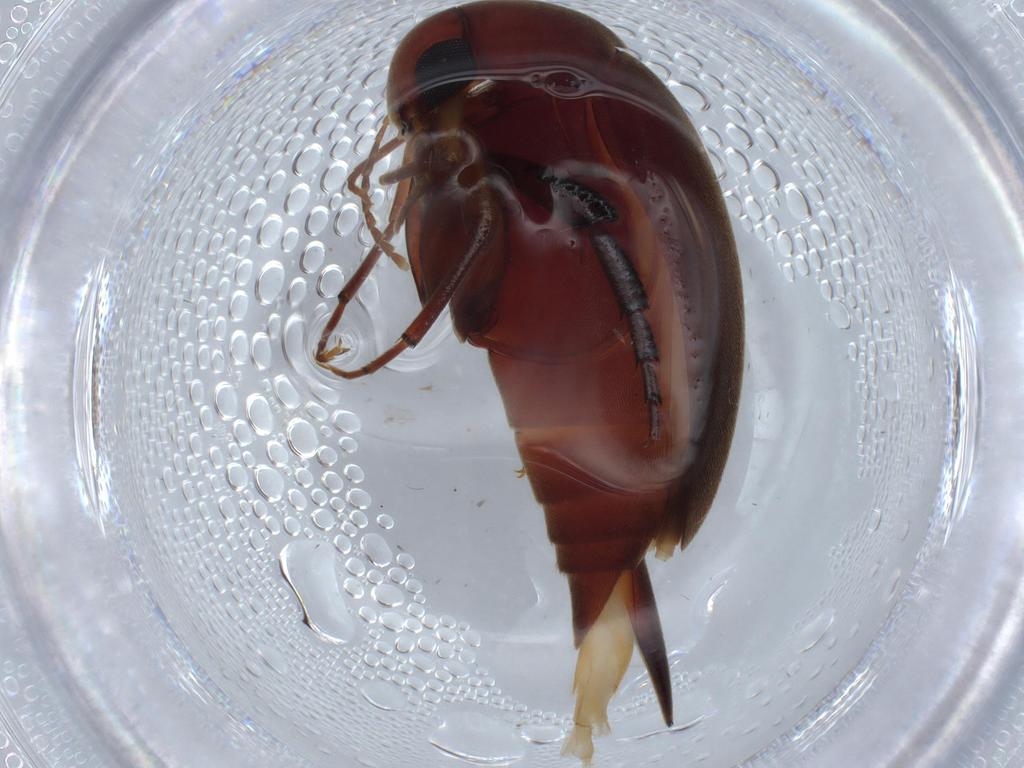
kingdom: Animalia
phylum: Arthropoda
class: Insecta
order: Coleoptera
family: Mordellidae
